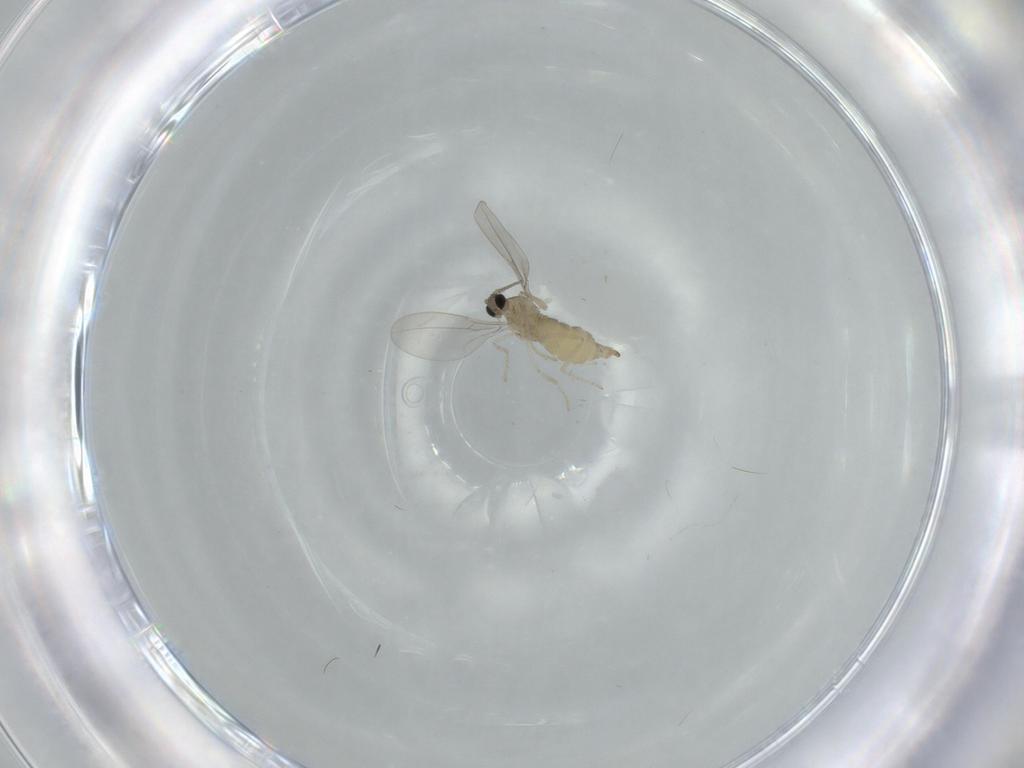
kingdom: Animalia
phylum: Arthropoda
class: Insecta
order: Diptera
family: Cecidomyiidae
